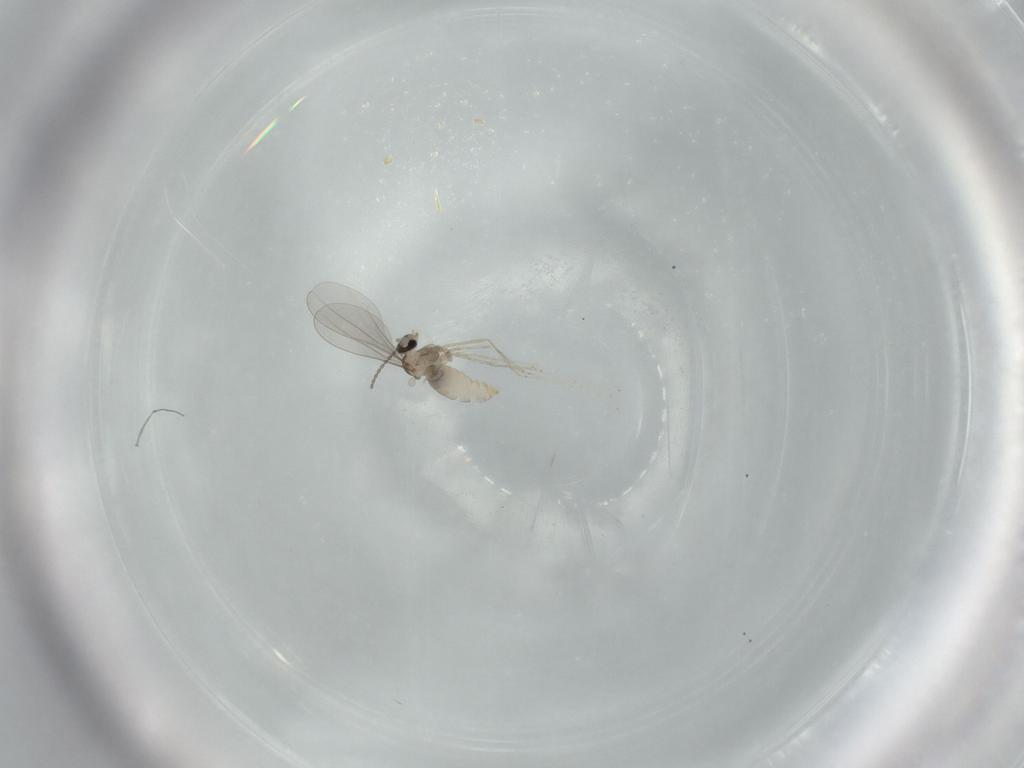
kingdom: Animalia
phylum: Arthropoda
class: Insecta
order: Diptera
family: Cecidomyiidae
